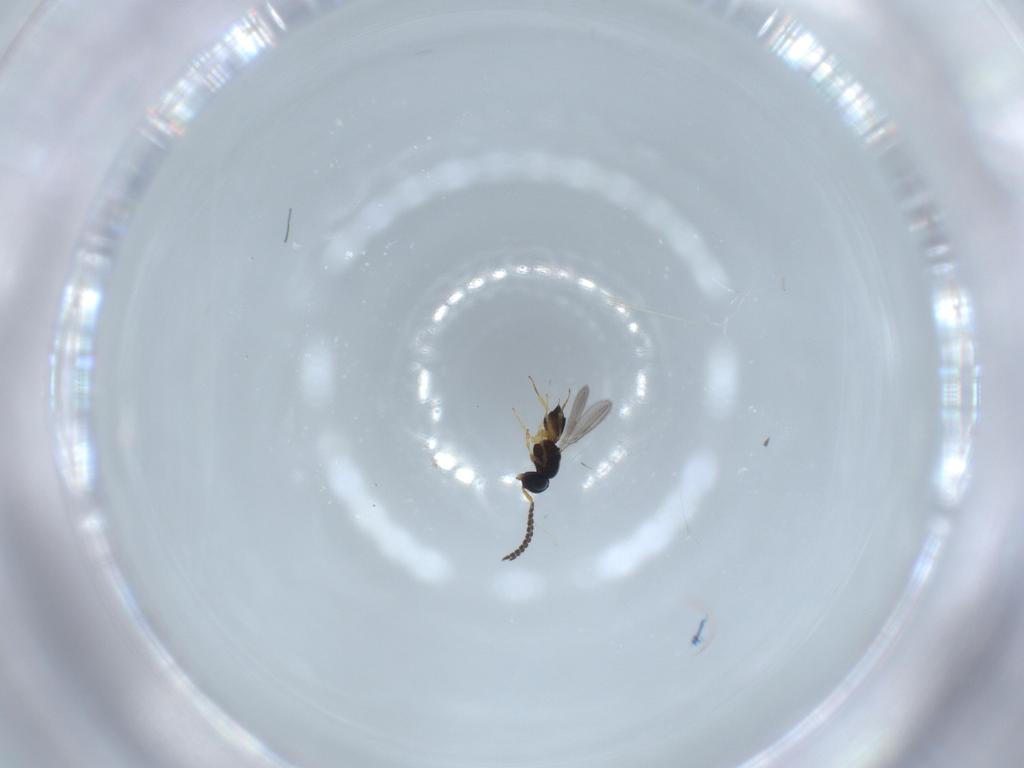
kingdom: Animalia
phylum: Arthropoda
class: Insecta
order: Hymenoptera
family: Scelionidae
